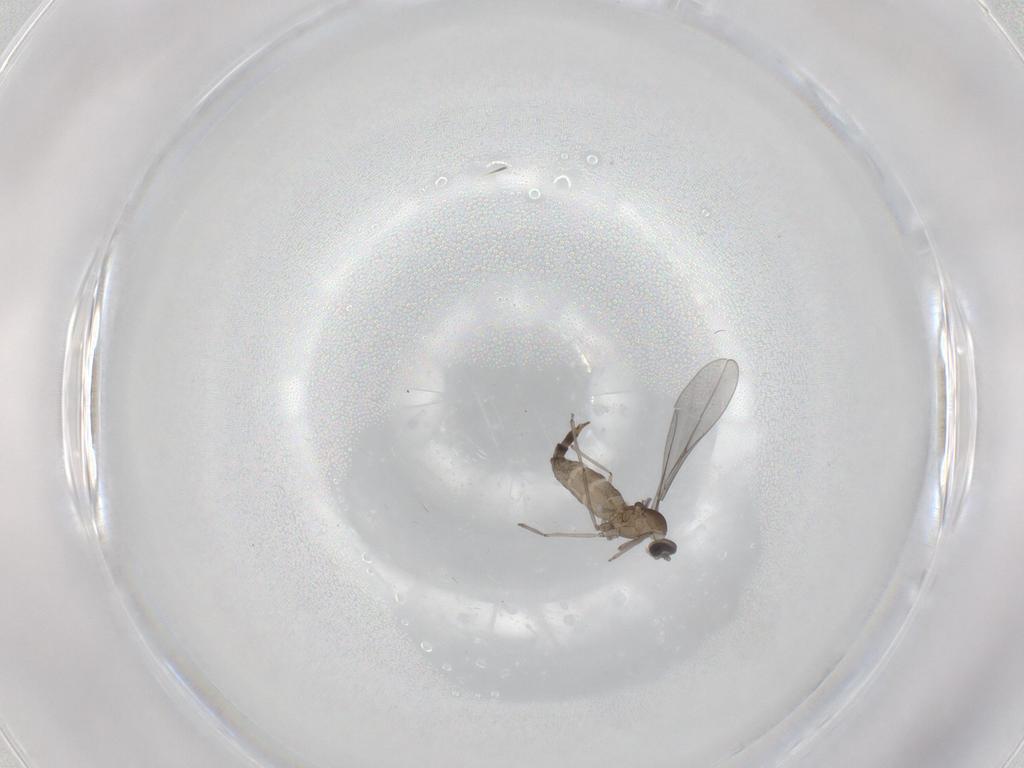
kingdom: Animalia
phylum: Arthropoda
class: Insecta
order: Diptera
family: Cecidomyiidae
